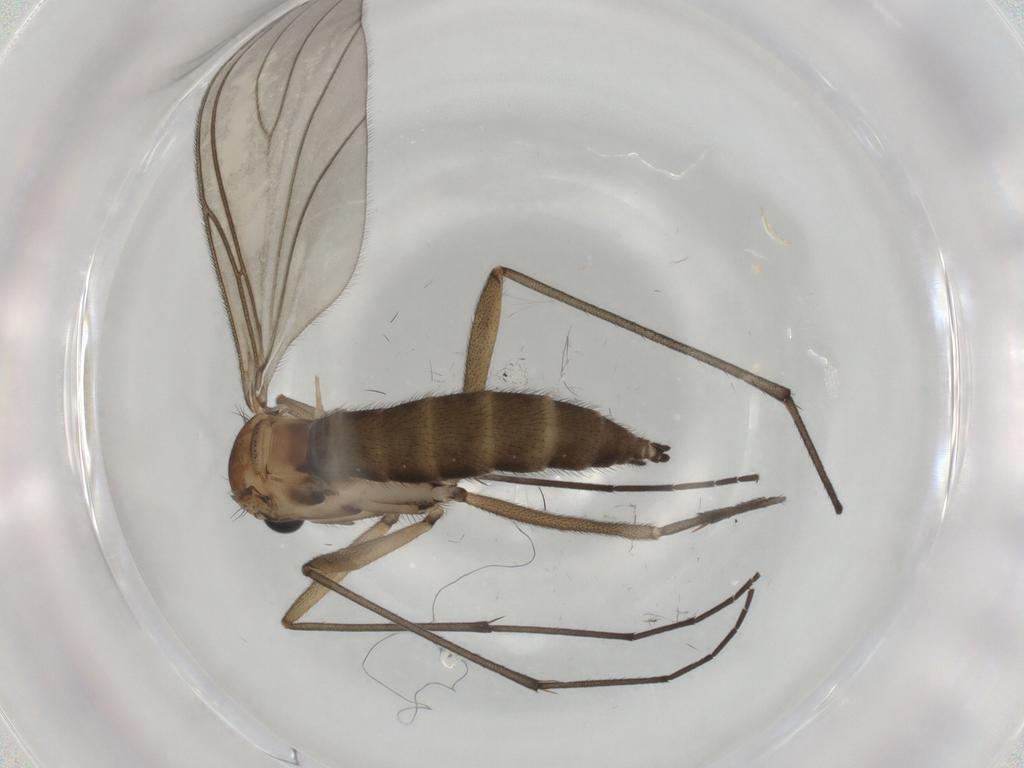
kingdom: Animalia
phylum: Arthropoda
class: Insecta
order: Diptera
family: Sciaridae
